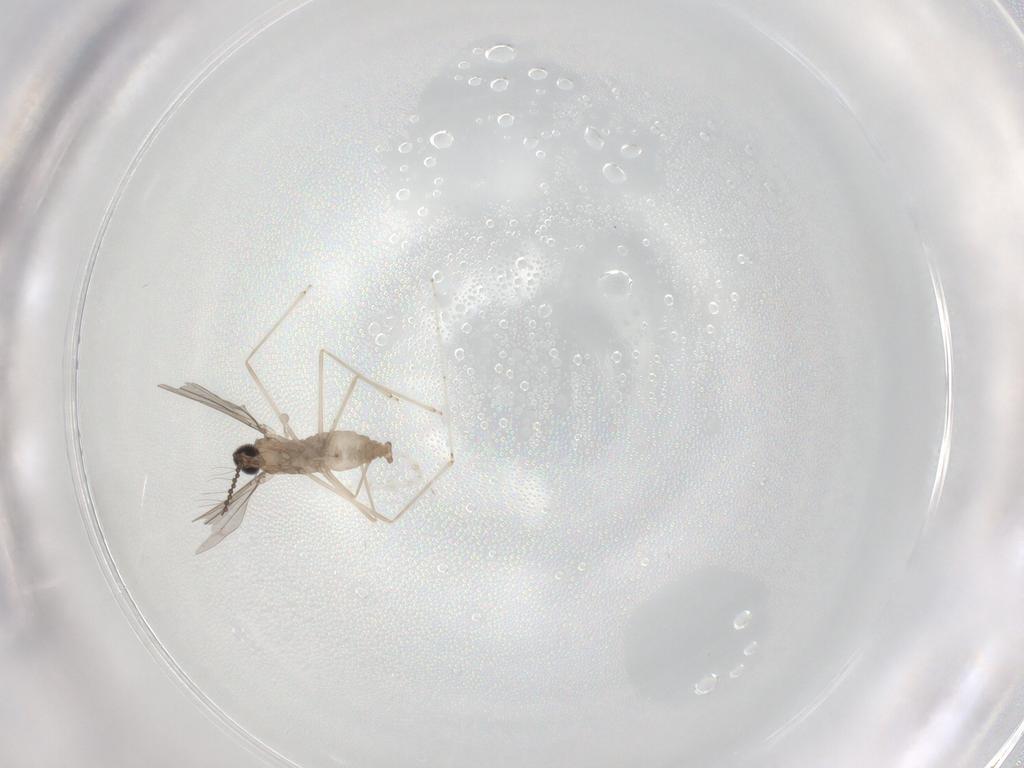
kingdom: Animalia
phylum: Arthropoda
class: Insecta
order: Diptera
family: Cecidomyiidae
